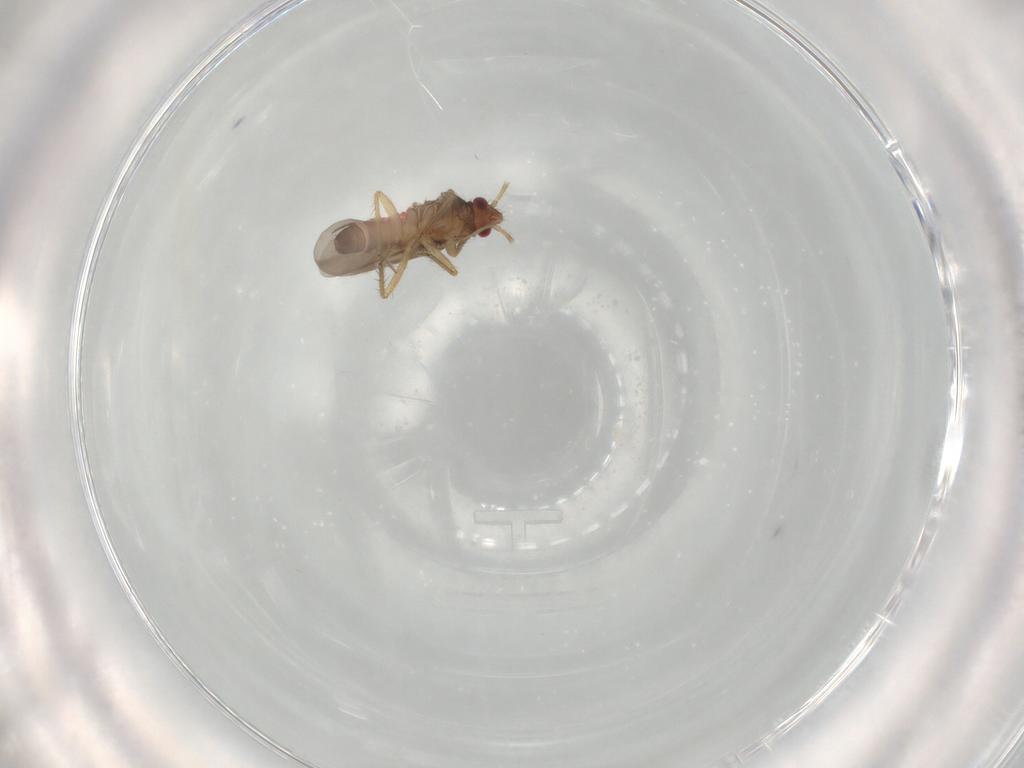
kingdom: Animalia
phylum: Arthropoda
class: Insecta
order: Hemiptera
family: Ceratocombidae
